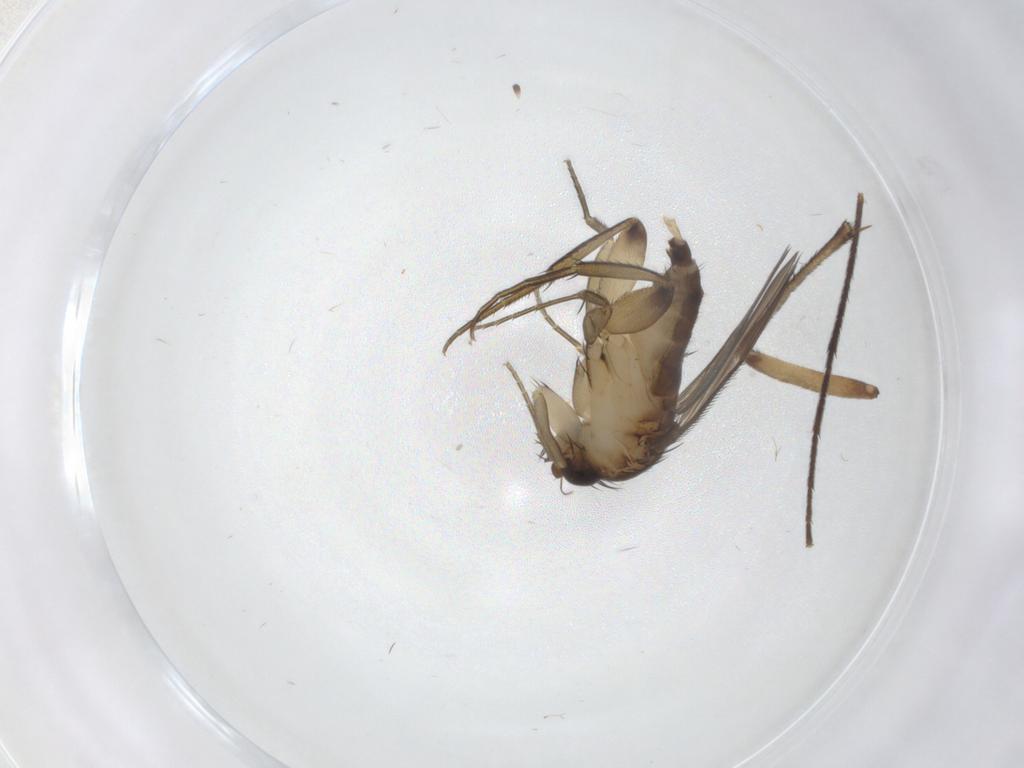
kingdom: Animalia
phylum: Arthropoda
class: Insecta
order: Diptera
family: Phoridae
